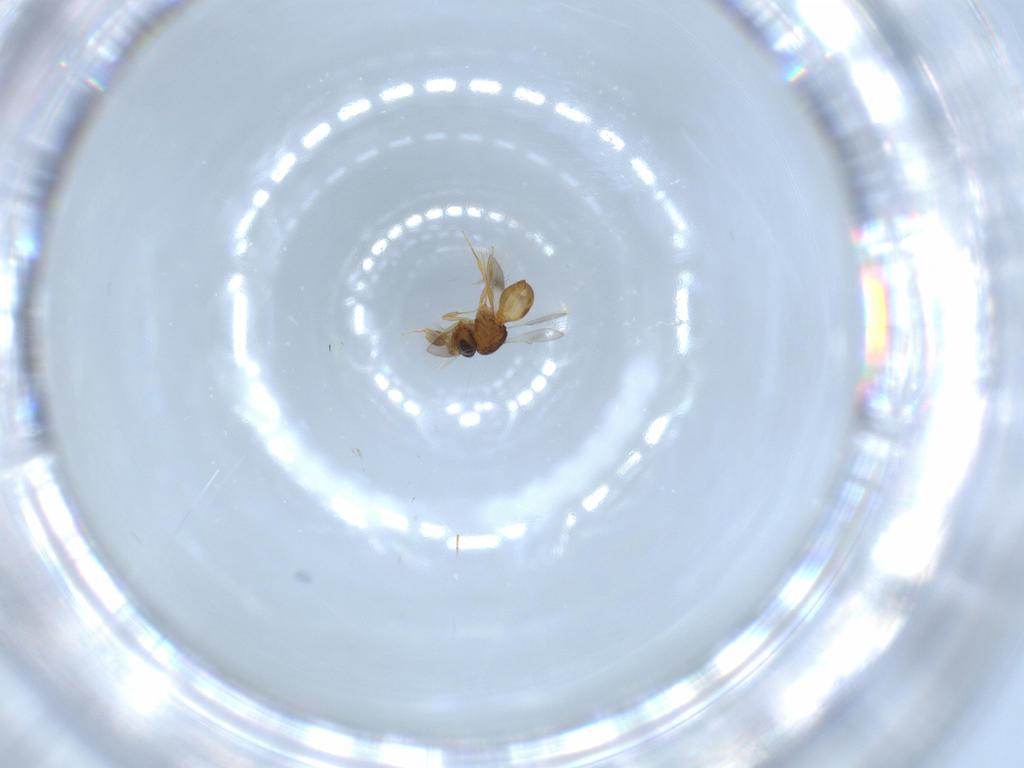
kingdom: Animalia
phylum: Arthropoda
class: Insecta
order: Hymenoptera
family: Scelionidae
